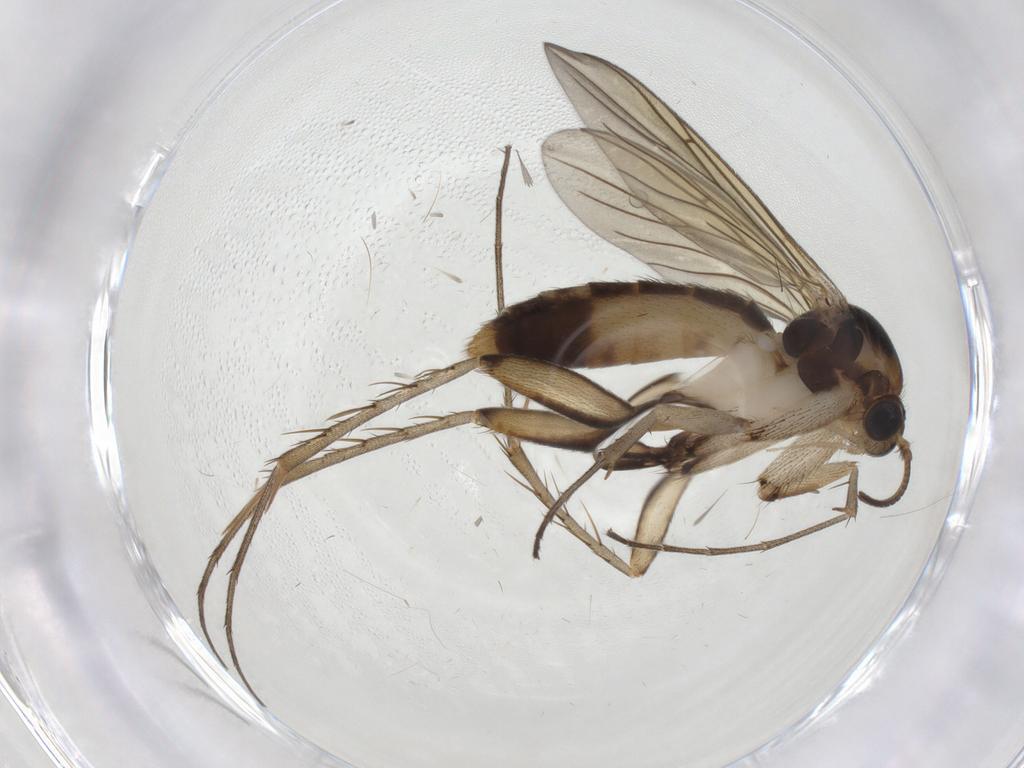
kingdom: Animalia
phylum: Arthropoda
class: Insecta
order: Diptera
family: Mycetophilidae
